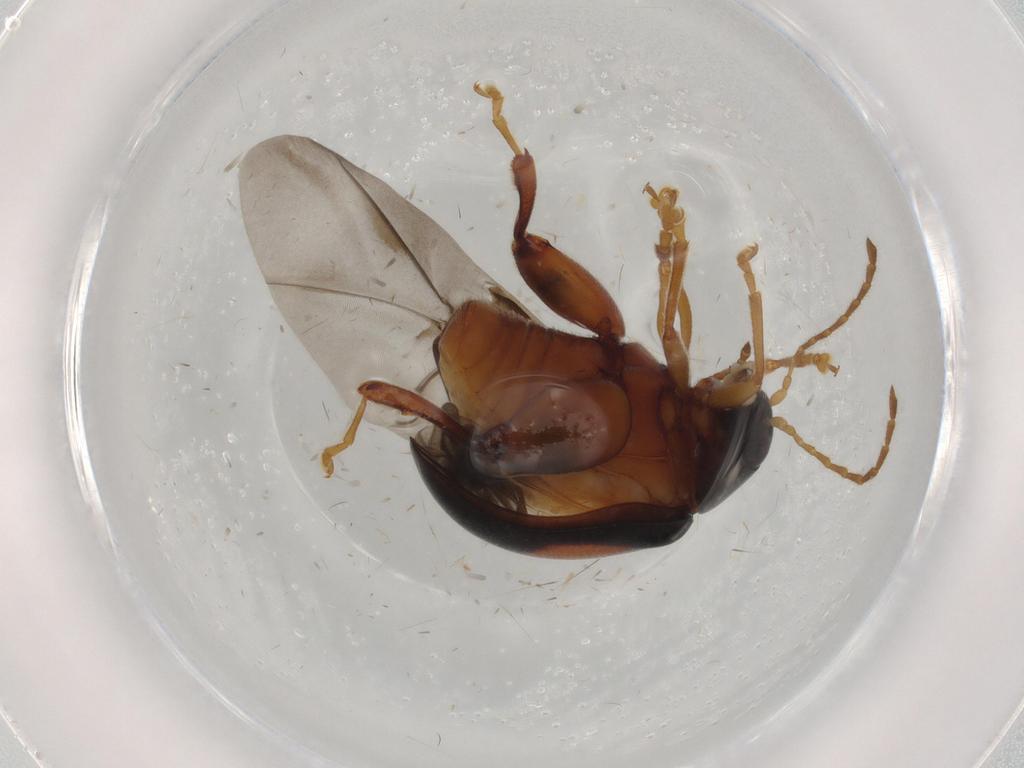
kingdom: Animalia
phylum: Arthropoda
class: Insecta
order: Coleoptera
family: Chrysomelidae
